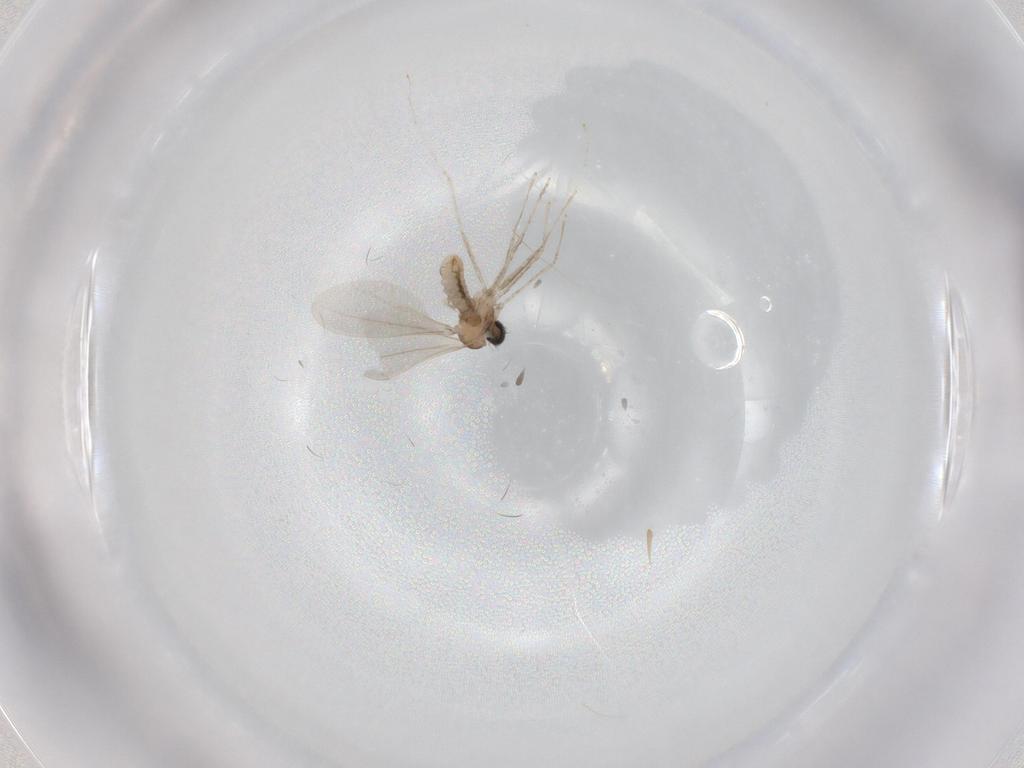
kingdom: Animalia
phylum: Arthropoda
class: Insecta
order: Diptera
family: Cecidomyiidae
